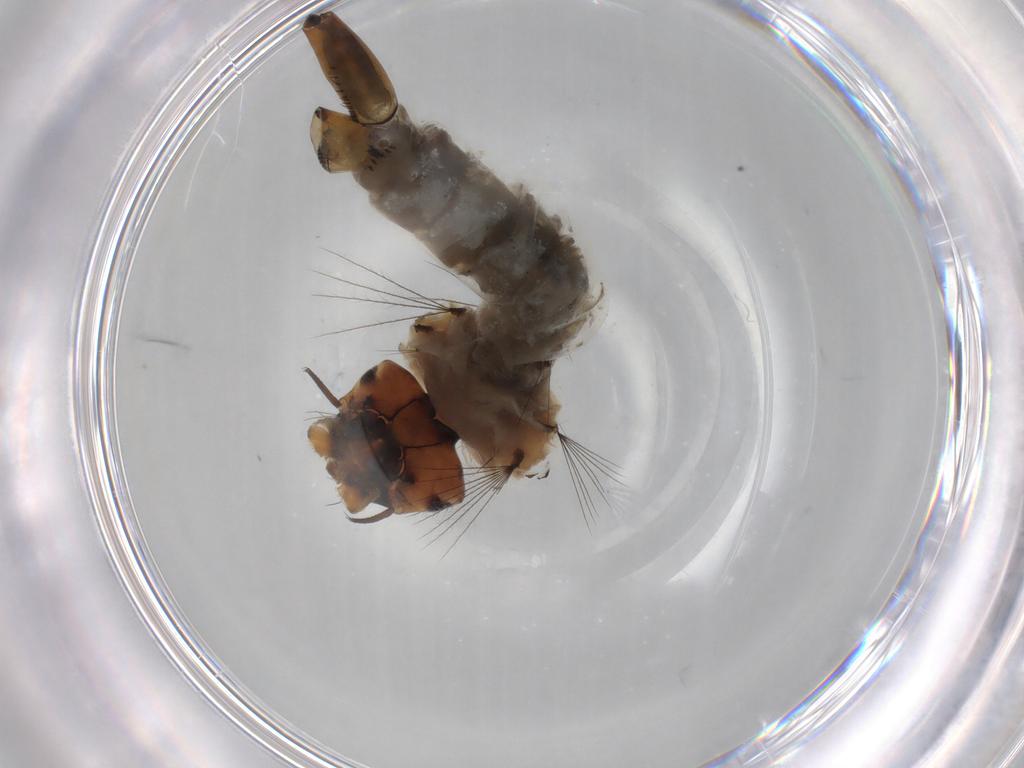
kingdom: Animalia
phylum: Arthropoda
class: Insecta
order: Diptera
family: Sciaridae
